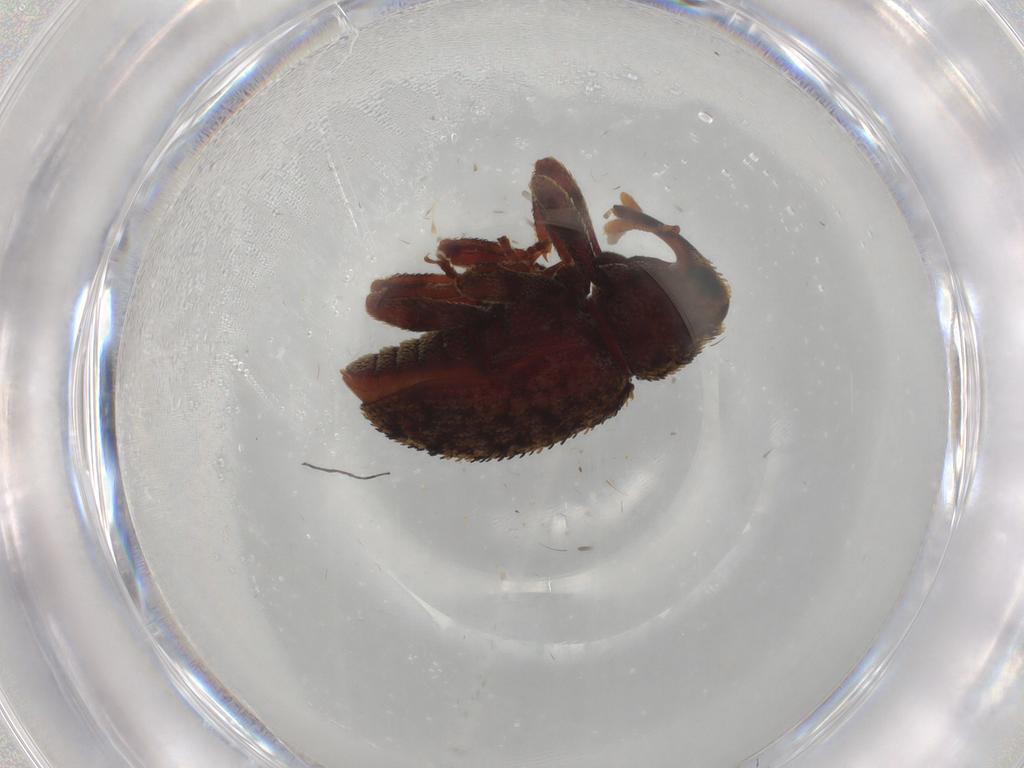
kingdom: Animalia
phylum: Arthropoda
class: Insecta
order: Coleoptera
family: Curculionidae
